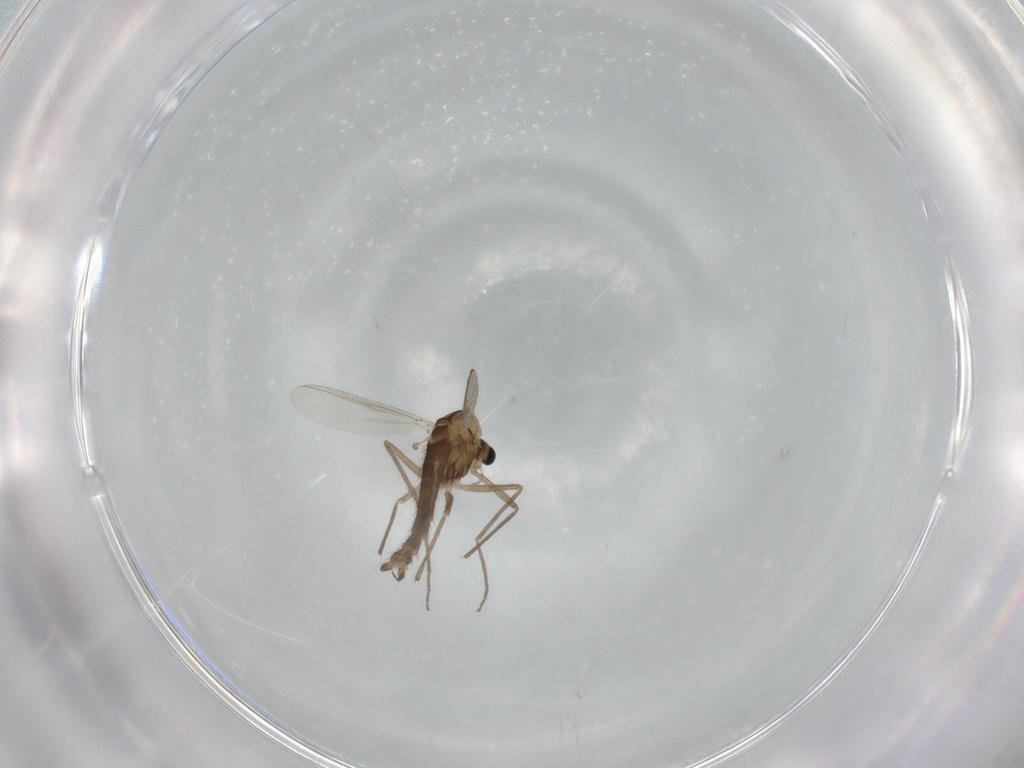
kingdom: Animalia
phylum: Arthropoda
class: Insecta
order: Diptera
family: Chironomidae
